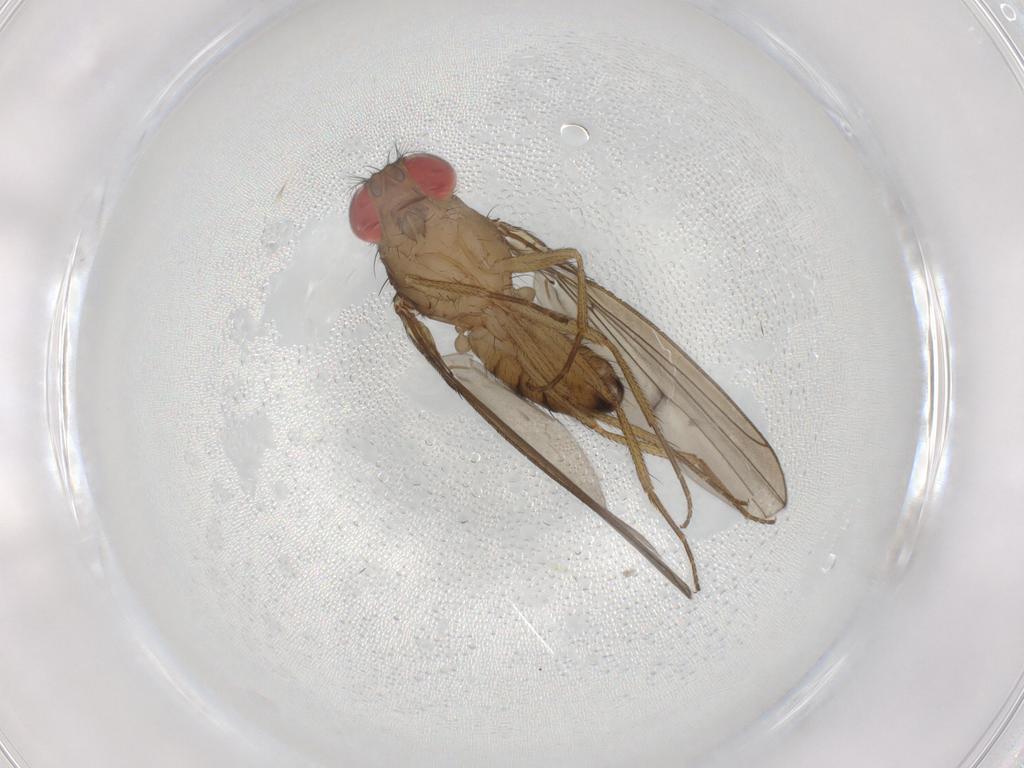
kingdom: Animalia
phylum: Arthropoda
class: Insecta
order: Diptera
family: Drosophilidae
